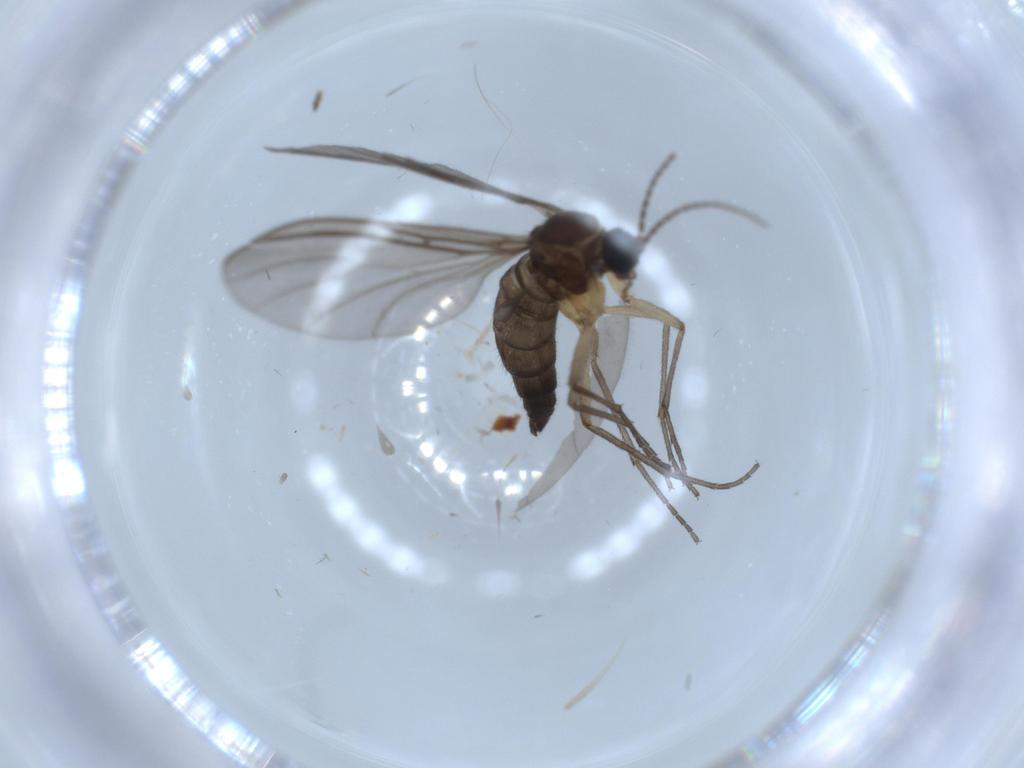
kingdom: Animalia
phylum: Arthropoda
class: Insecta
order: Diptera
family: Sciaridae
